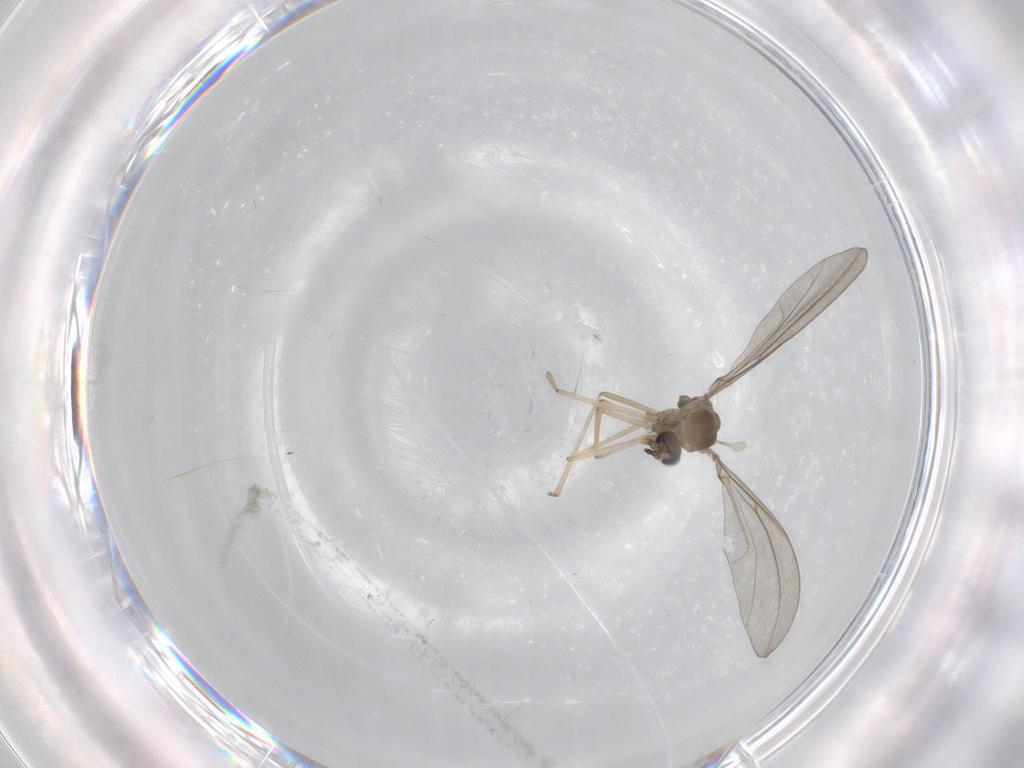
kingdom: Animalia
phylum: Arthropoda
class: Insecta
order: Diptera
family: Cecidomyiidae
